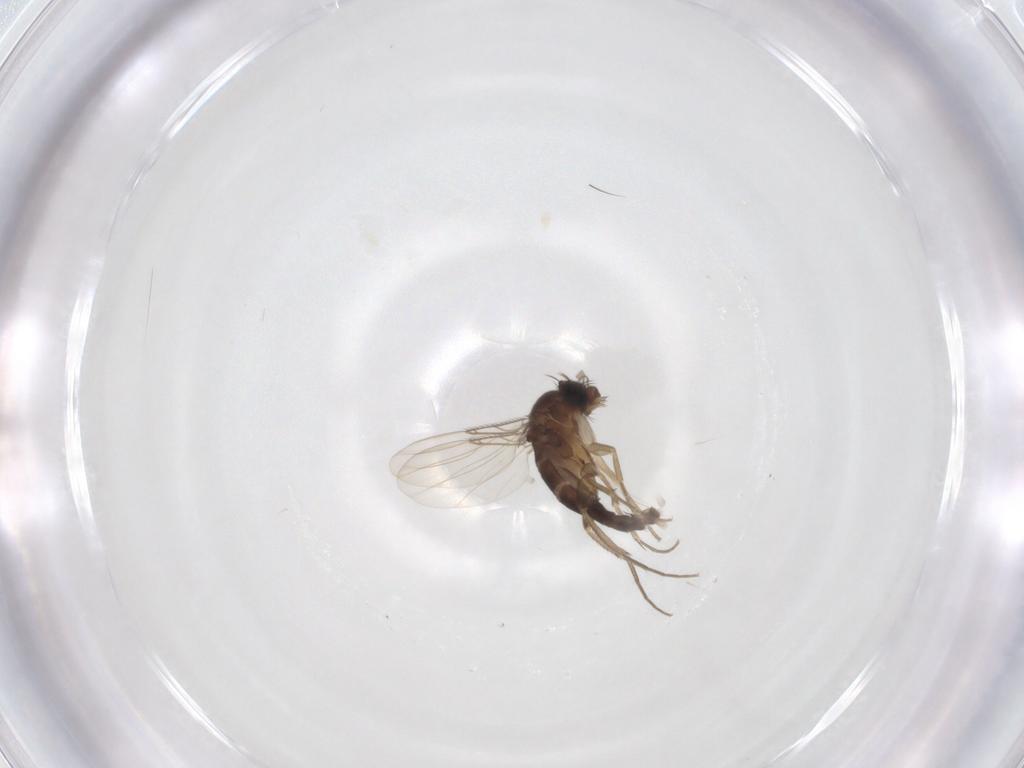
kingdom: Animalia
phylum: Arthropoda
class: Insecta
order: Diptera
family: Phoridae
